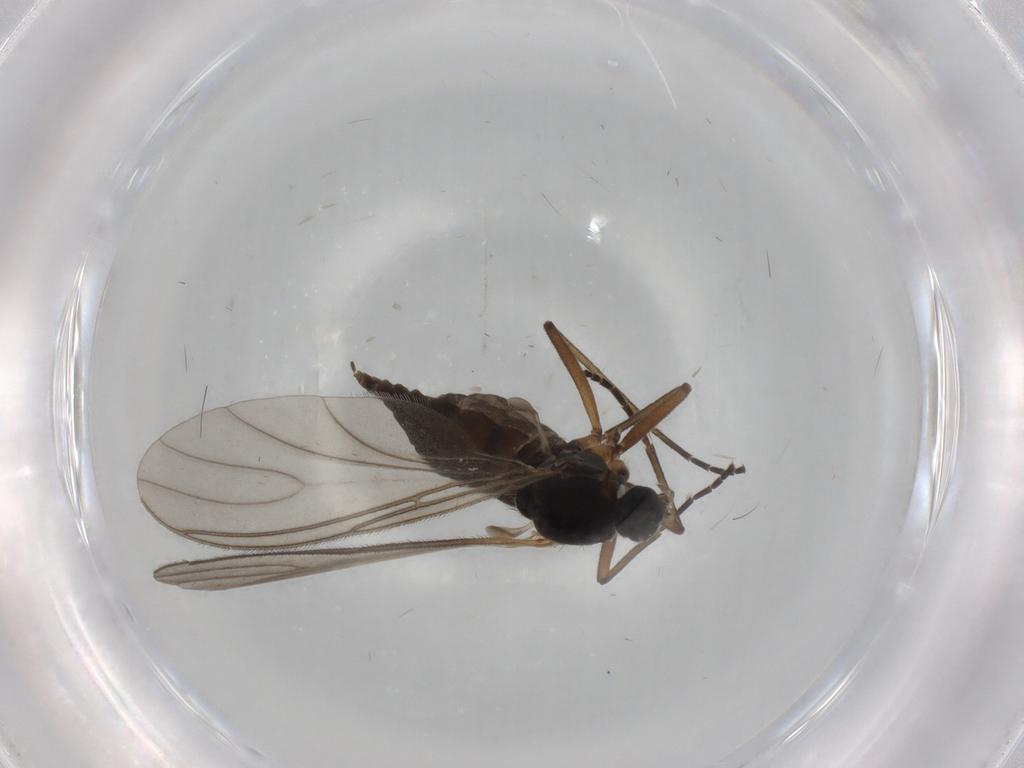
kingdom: Animalia
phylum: Arthropoda
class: Insecta
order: Diptera
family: Sciaridae
